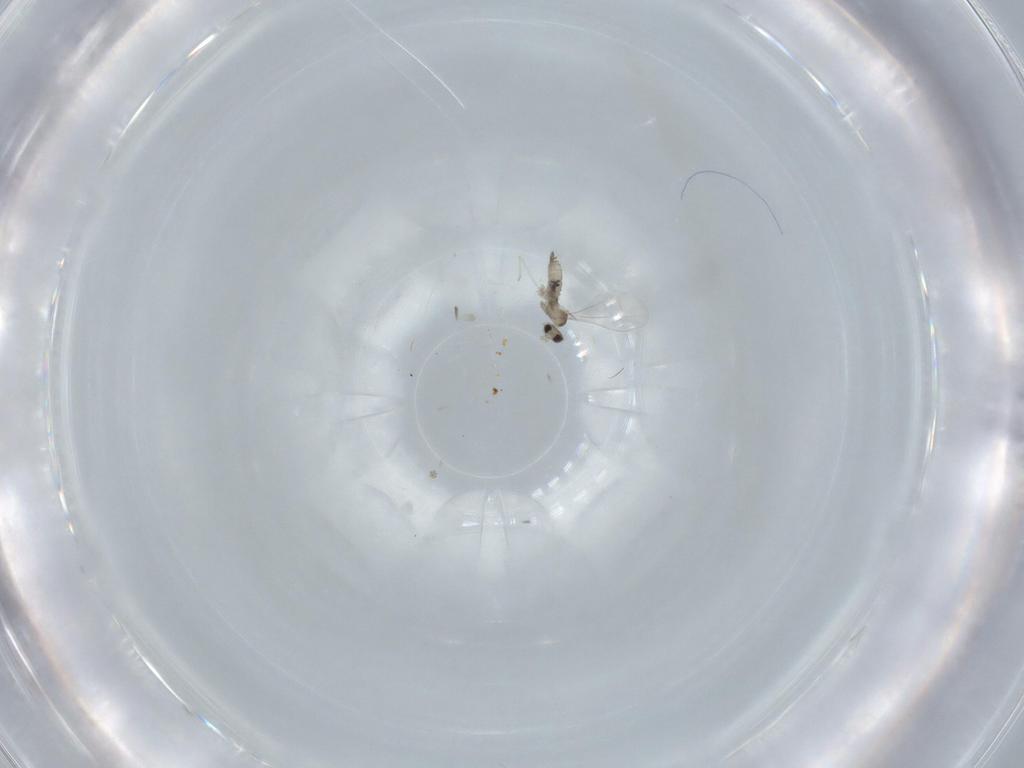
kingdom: Animalia
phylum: Arthropoda
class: Insecta
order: Diptera
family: Cecidomyiidae
